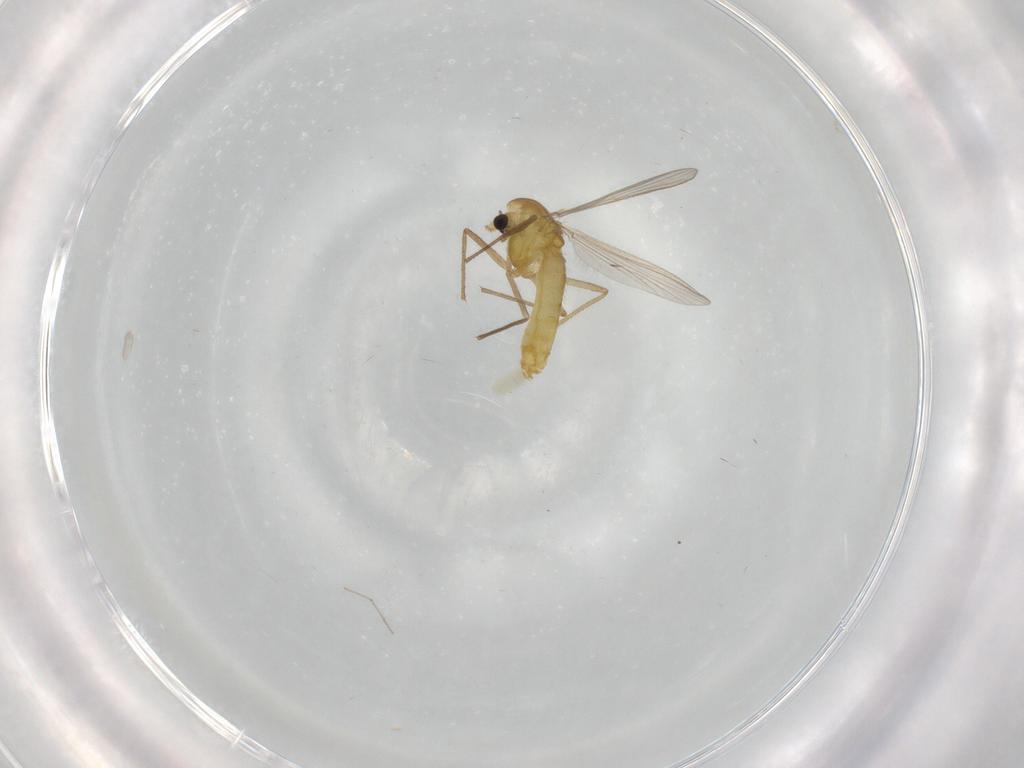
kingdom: Animalia
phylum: Arthropoda
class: Insecta
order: Diptera
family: Chironomidae
